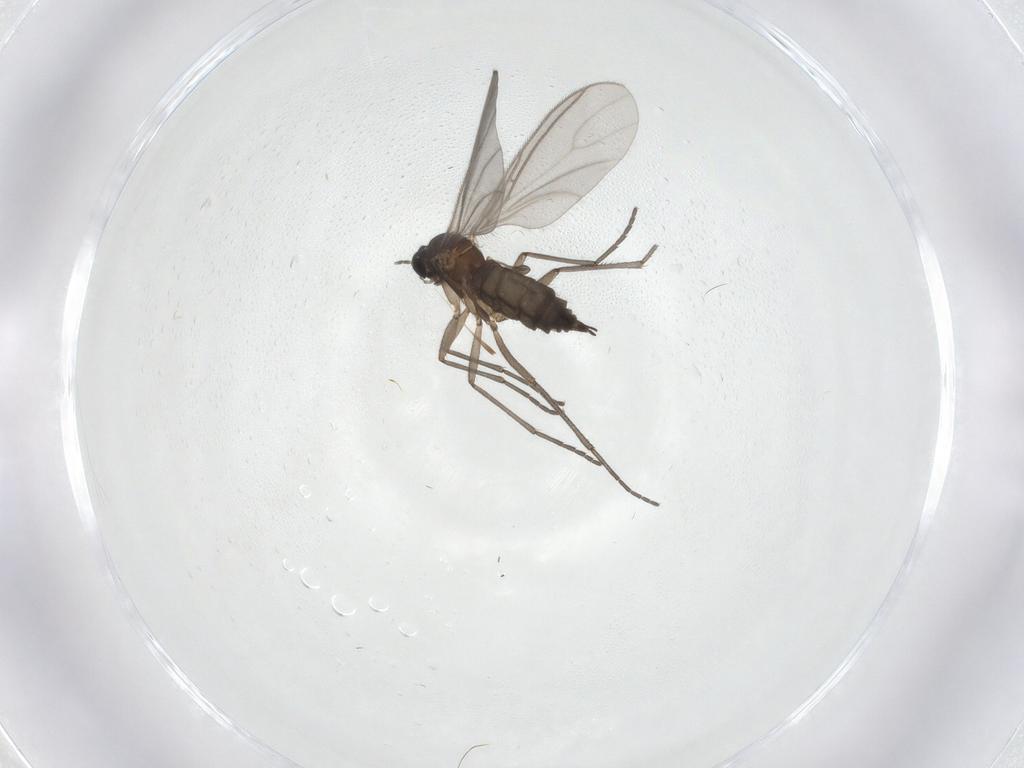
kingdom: Animalia
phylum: Arthropoda
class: Insecta
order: Diptera
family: Sciaridae
